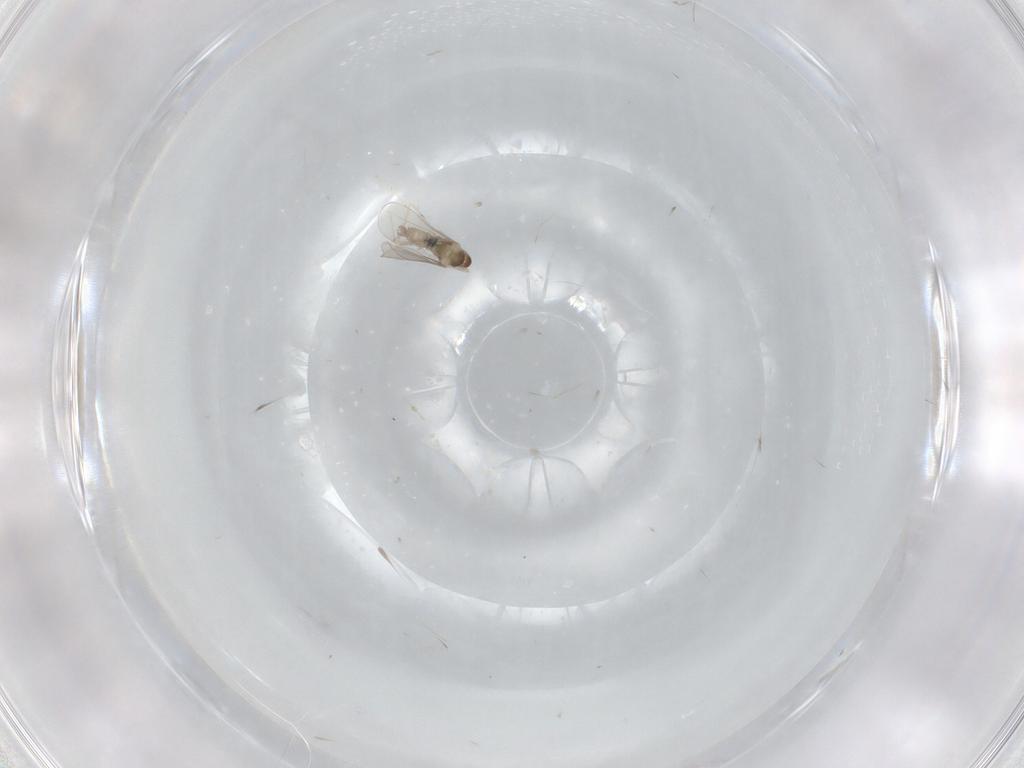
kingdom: Animalia
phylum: Arthropoda
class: Insecta
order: Diptera
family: Cecidomyiidae
